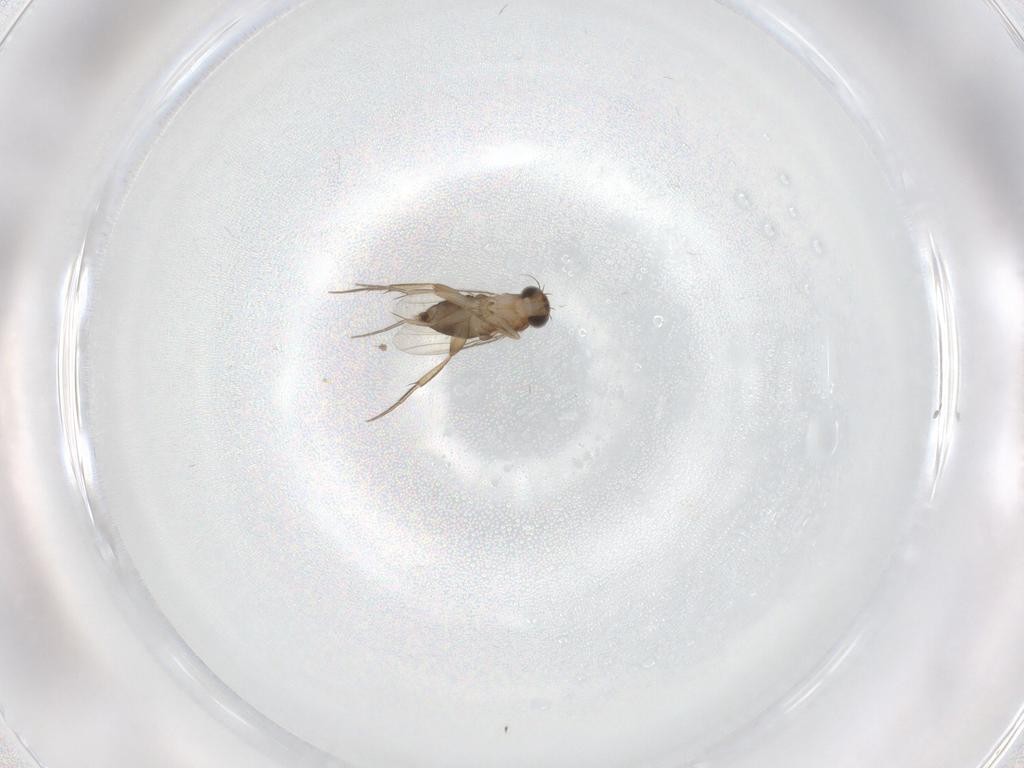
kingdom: Animalia
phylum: Arthropoda
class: Insecta
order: Diptera
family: Phoridae
